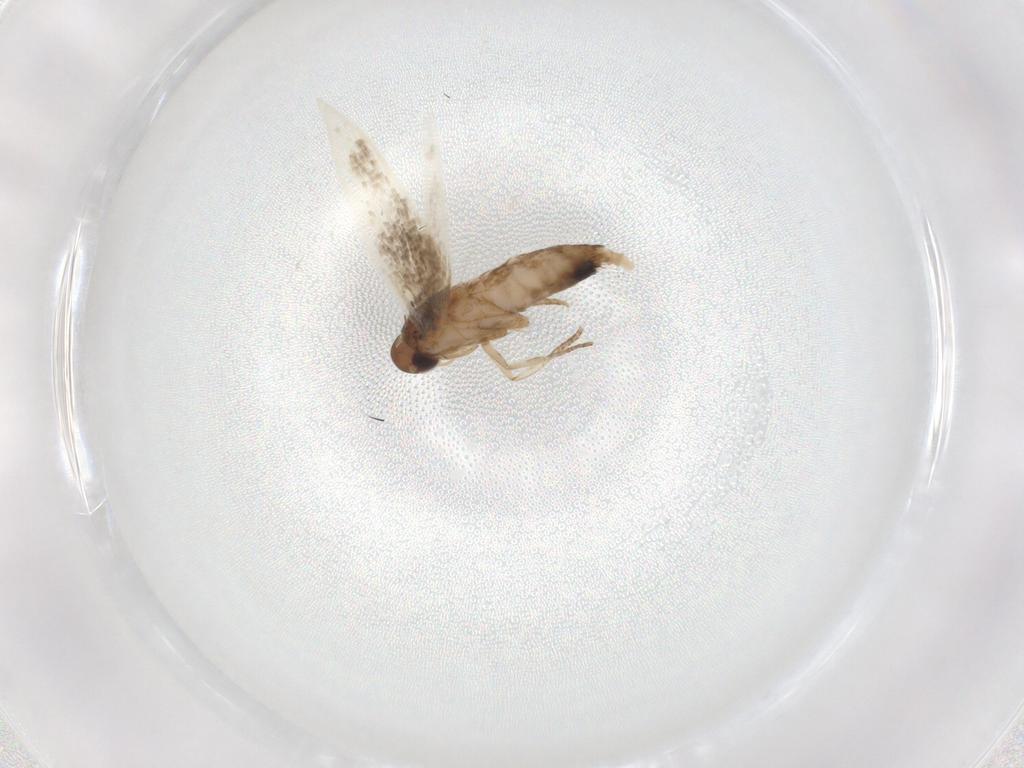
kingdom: Animalia
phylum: Arthropoda
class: Insecta
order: Lepidoptera
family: Cosmopterigidae
